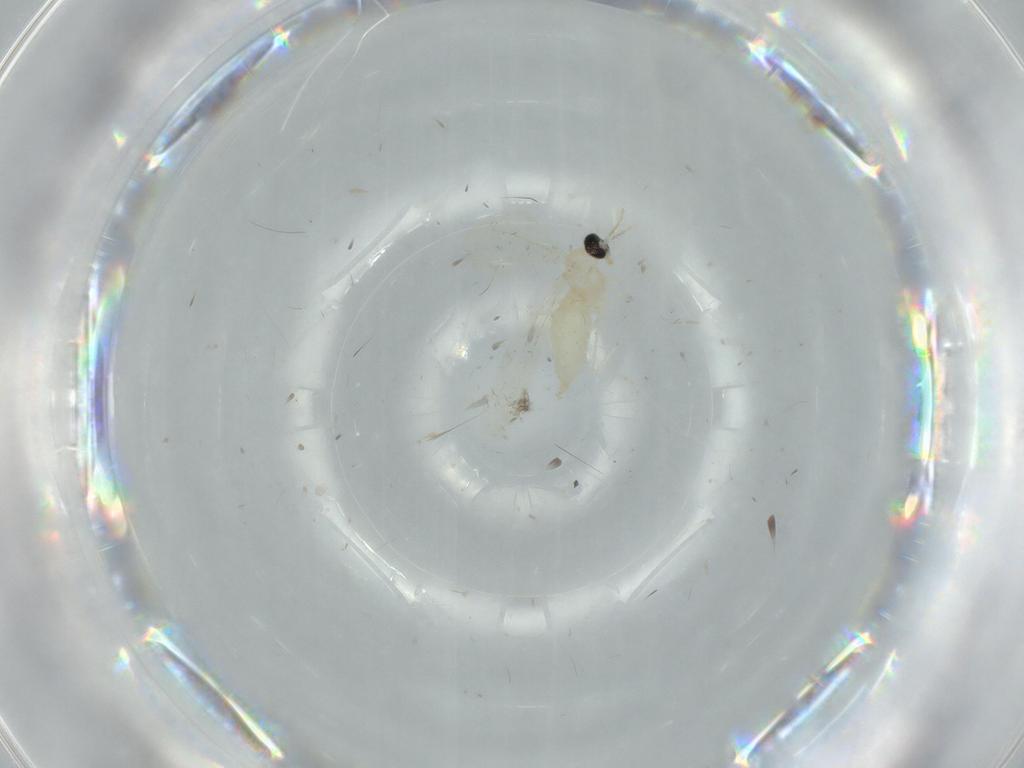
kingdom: Animalia
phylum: Arthropoda
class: Insecta
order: Diptera
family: Cecidomyiidae
